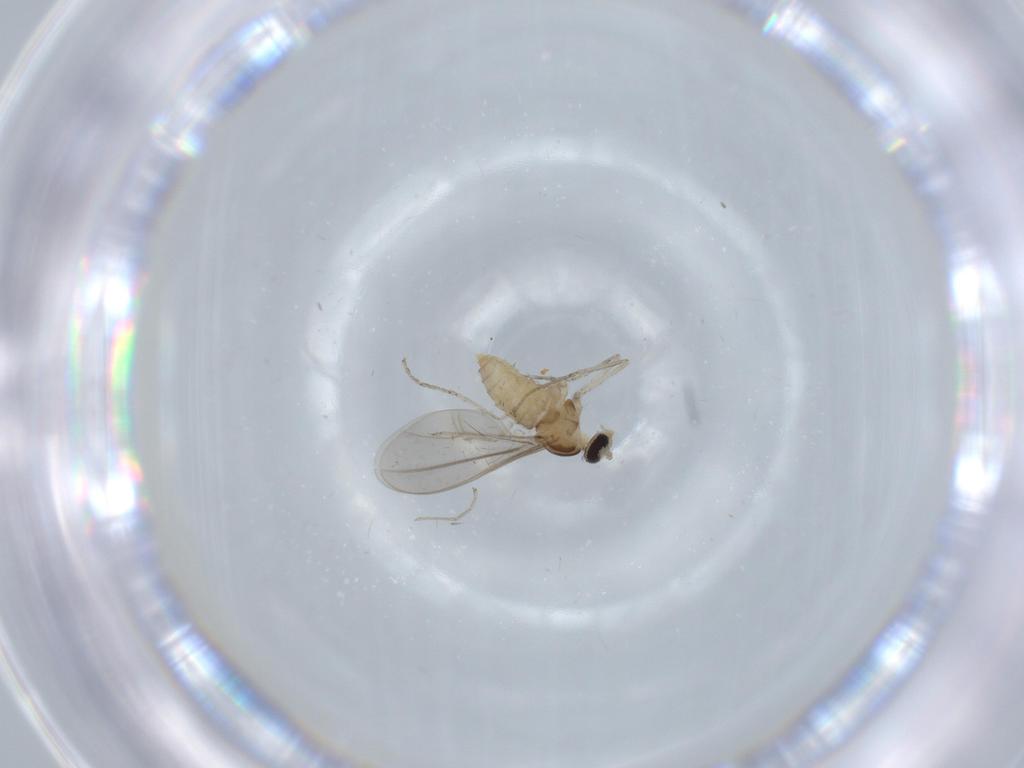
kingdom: Animalia
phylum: Arthropoda
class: Insecta
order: Diptera
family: Cecidomyiidae
